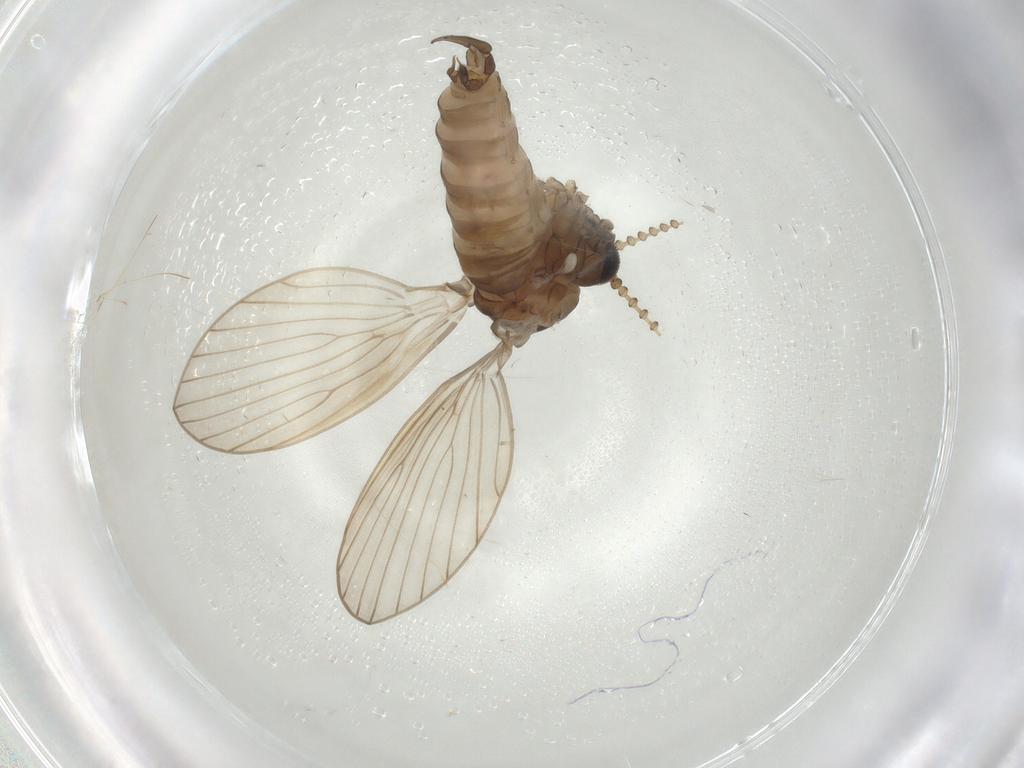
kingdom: Animalia
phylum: Arthropoda
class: Insecta
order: Diptera
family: Psychodidae
